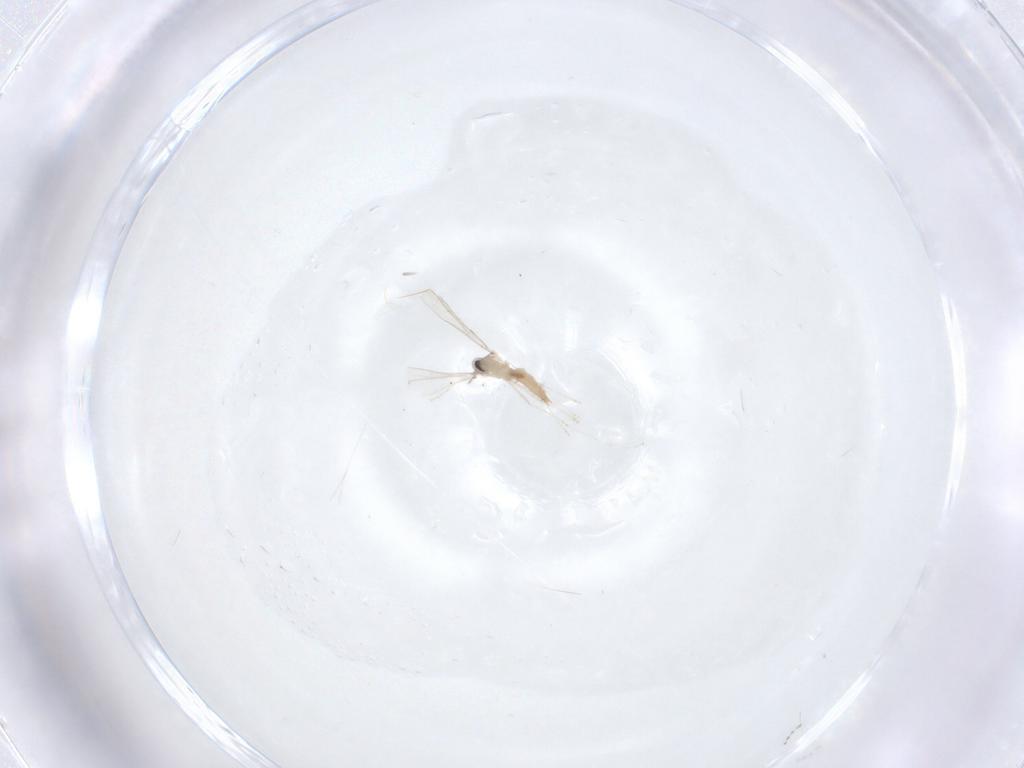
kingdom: Animalia
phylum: Arthropoda
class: Insecta
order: Diptera
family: Cecidomyiidae
